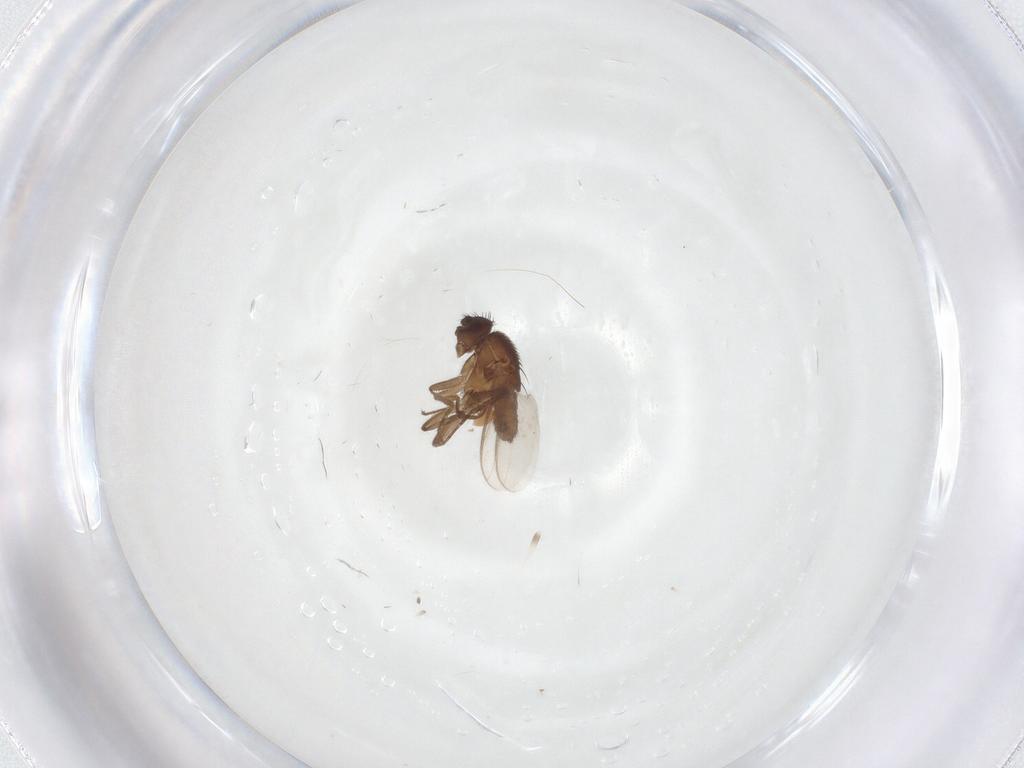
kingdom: Animalia
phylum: Arthropoda
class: Insecta
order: Diptera
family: Sphaeroceridae
